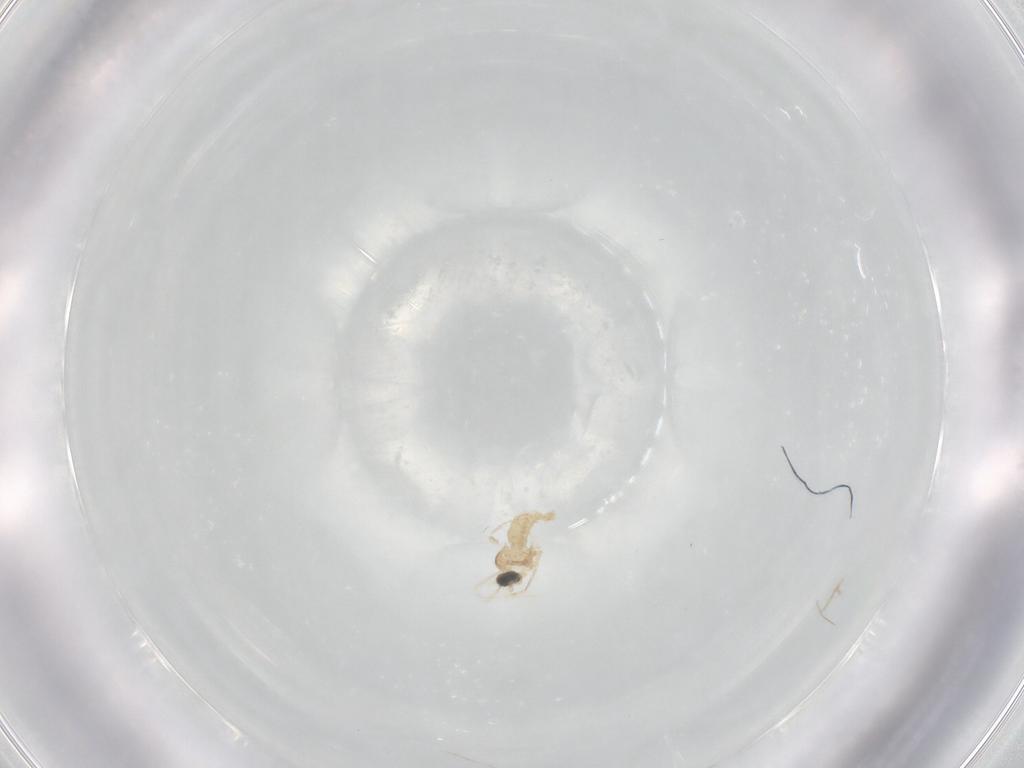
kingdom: Animalia
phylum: Arthropoda
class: Insecta
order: Diptera
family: Cecidomyiidae
